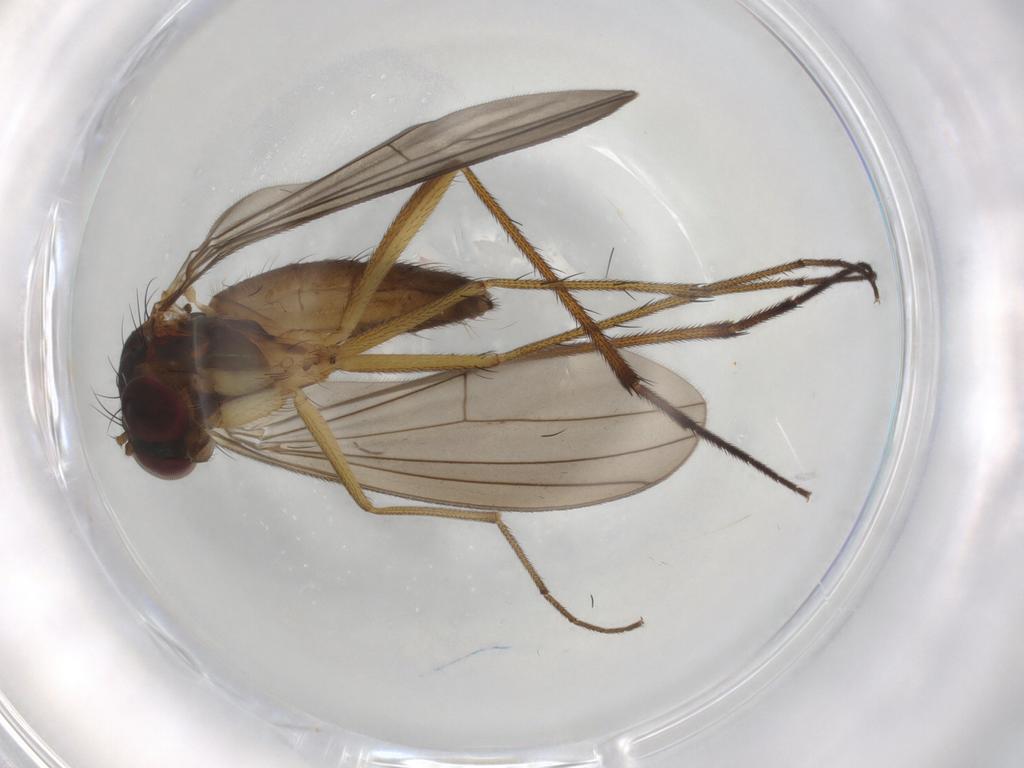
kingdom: Animalia
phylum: Arthropoda
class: Insecta
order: Diptera
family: Dolichopodidae
